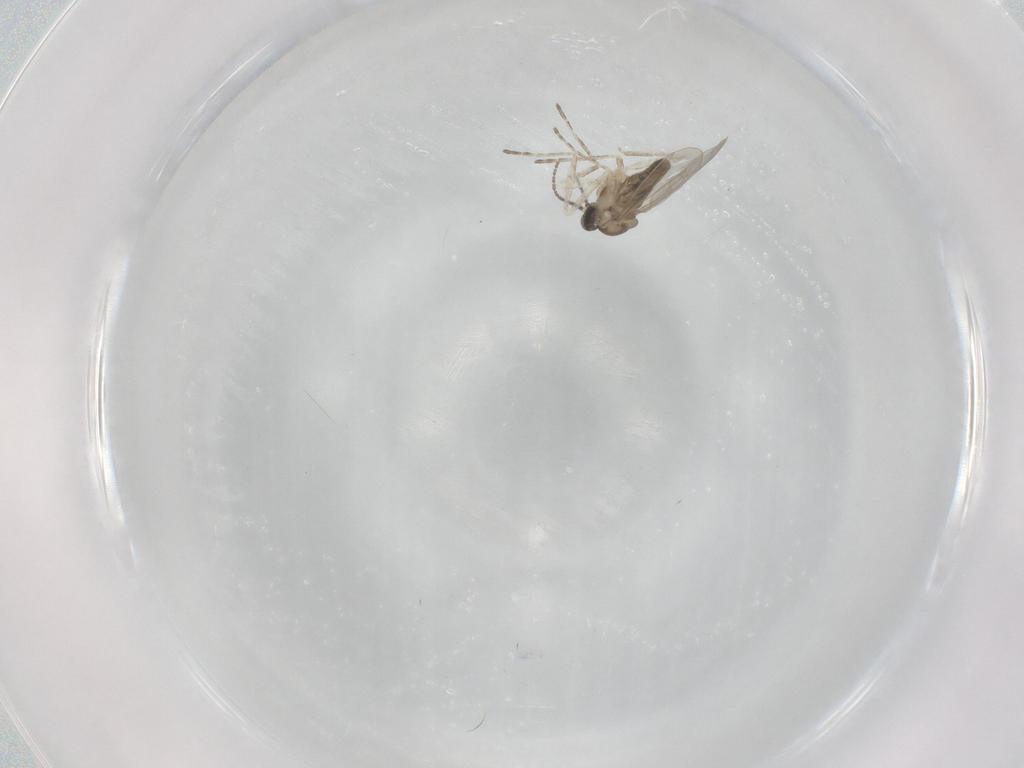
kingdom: Animalia
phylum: Arthropoda
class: Insecta
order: Diptera
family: Cecidomyiidae
